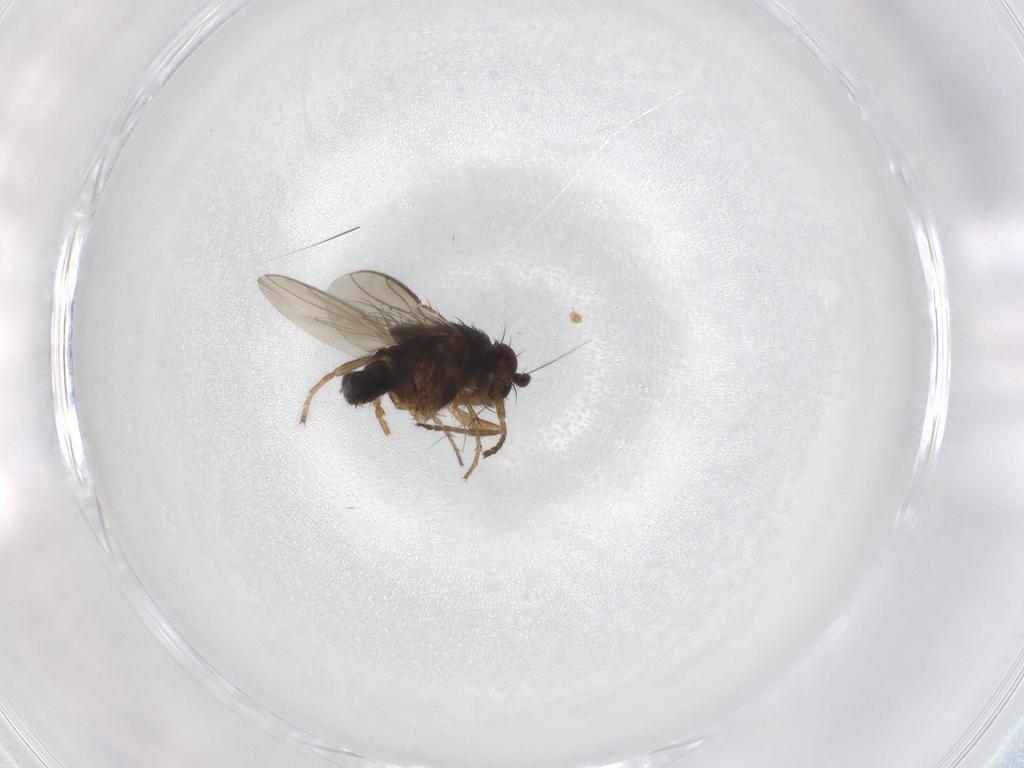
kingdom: Animalia
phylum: Arthropoda
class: Insecta
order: Diptera
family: Sphaeroceridae
